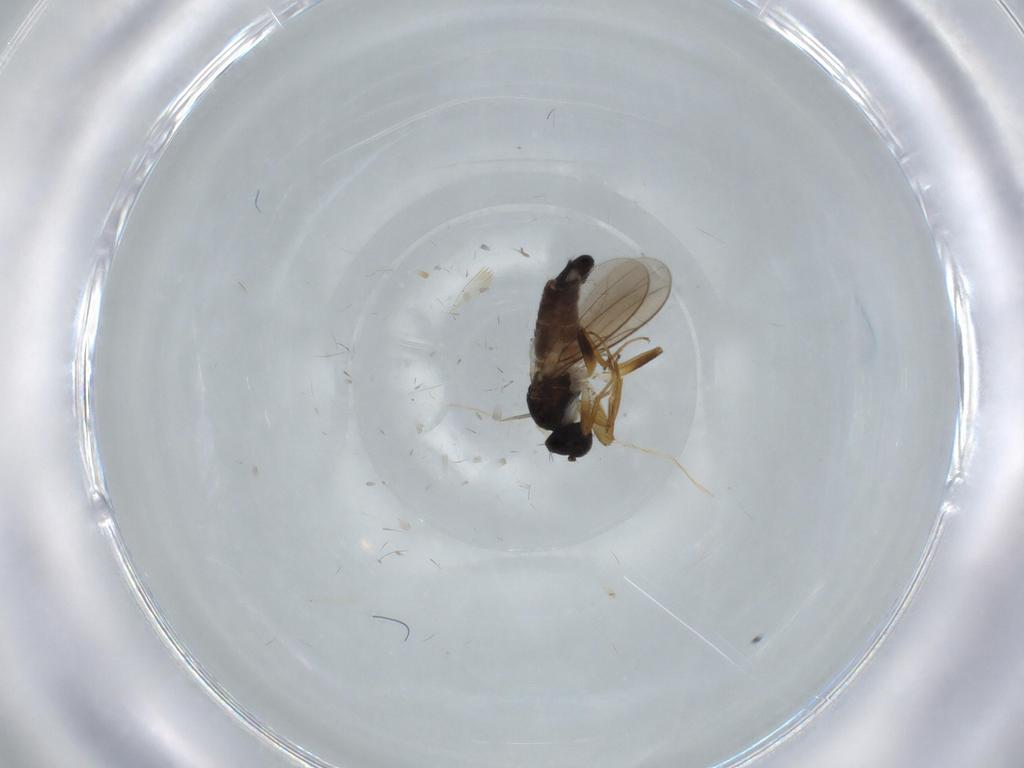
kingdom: Animalia
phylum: Arthropoda
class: Insecta
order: Diptera
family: Hybotidae
